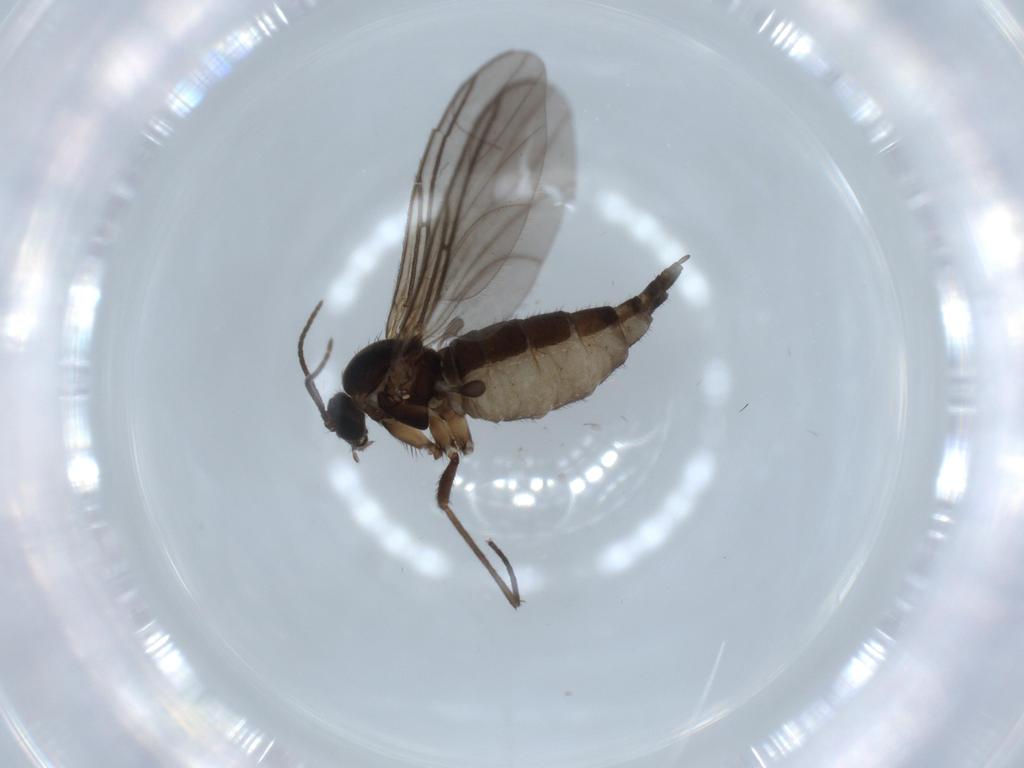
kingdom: Animalia
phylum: Arthropoda
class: Insecta
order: Diptera
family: Sciaridae
